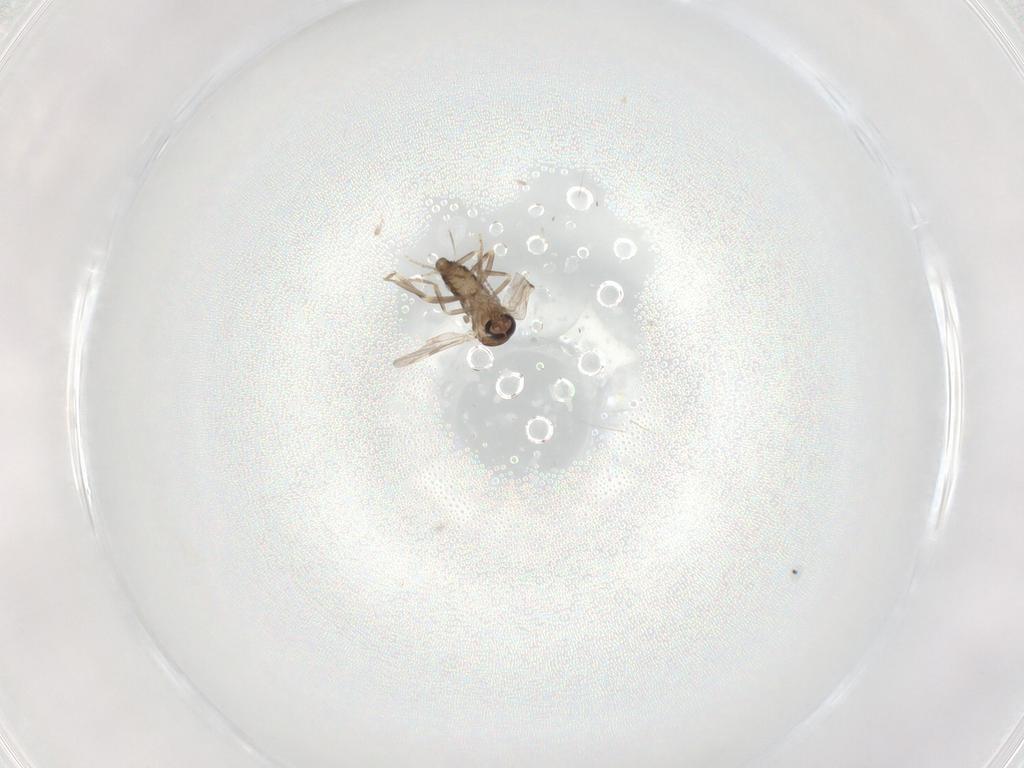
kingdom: Animalia
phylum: Arthropoda
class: Insecta
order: Diptera
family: Ceratopogonidae
